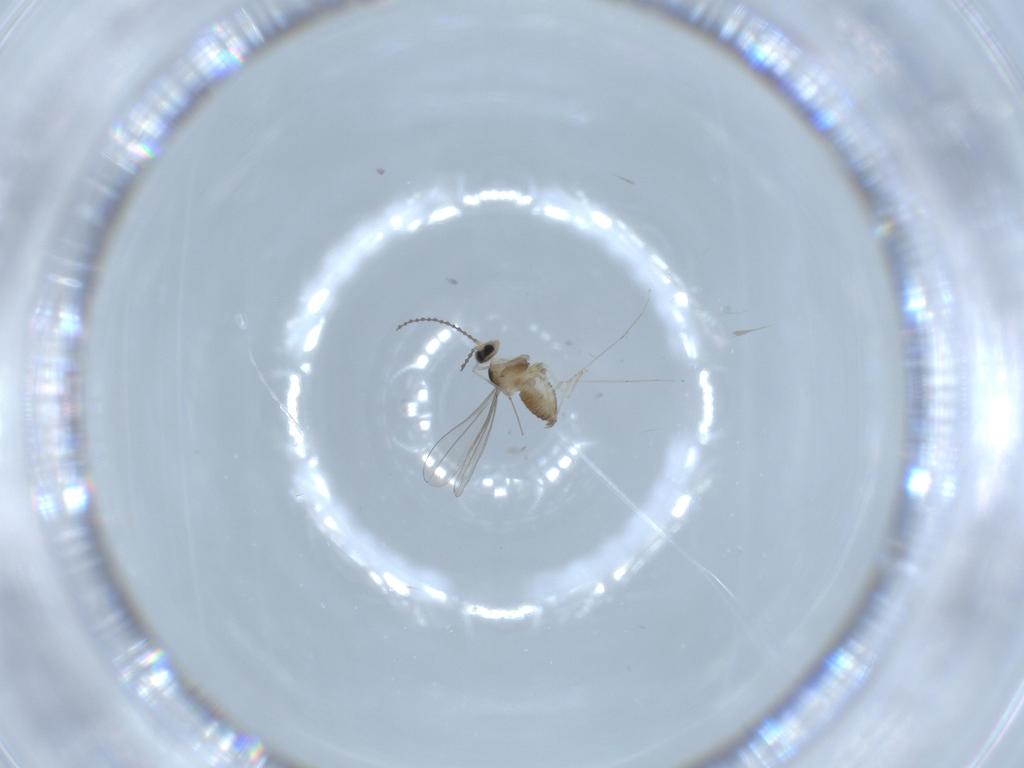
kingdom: Animalia
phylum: Arthropoda
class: Insecta
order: Diptera
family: Cecidomyiidae
